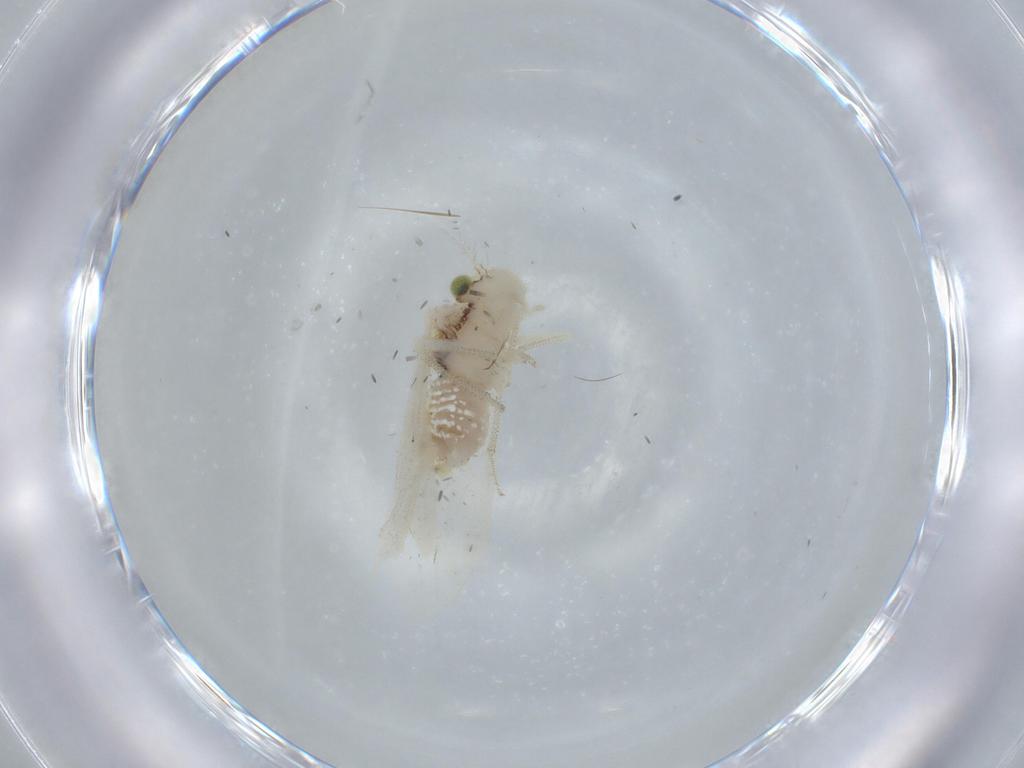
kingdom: Animalia
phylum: Arthropoda
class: Insecta
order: Psocodea
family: Pseudocaeciliidae
